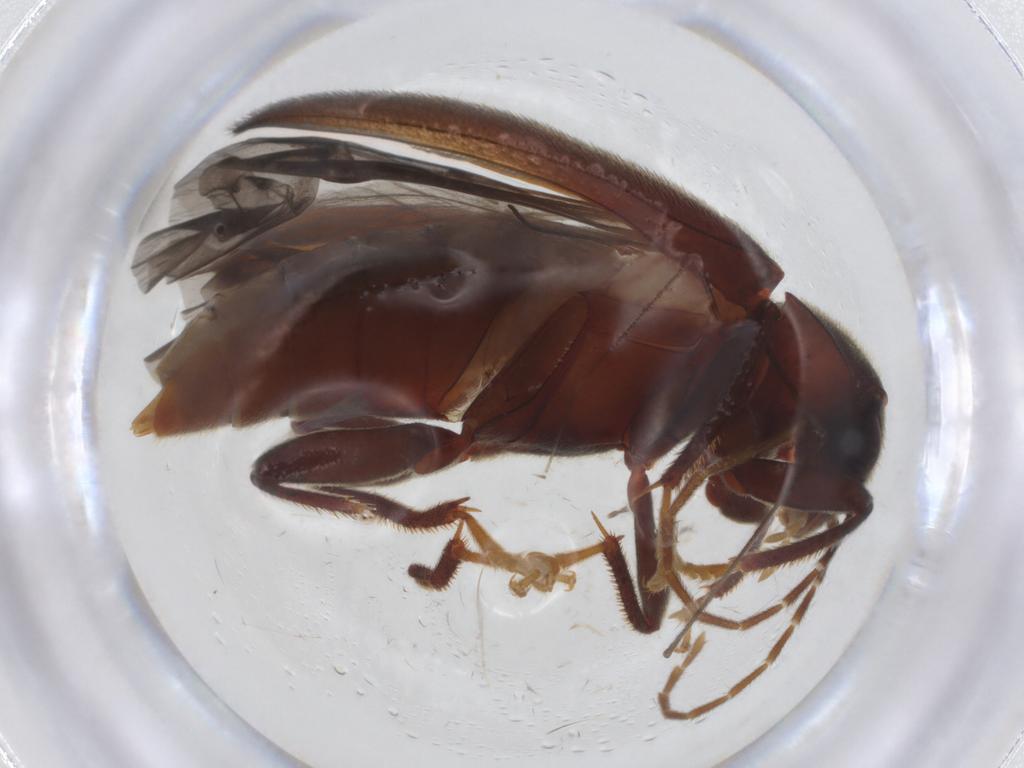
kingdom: Animalia
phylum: Arthropoda
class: Insecta
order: Coleoptera
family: Ptilodactylidae
